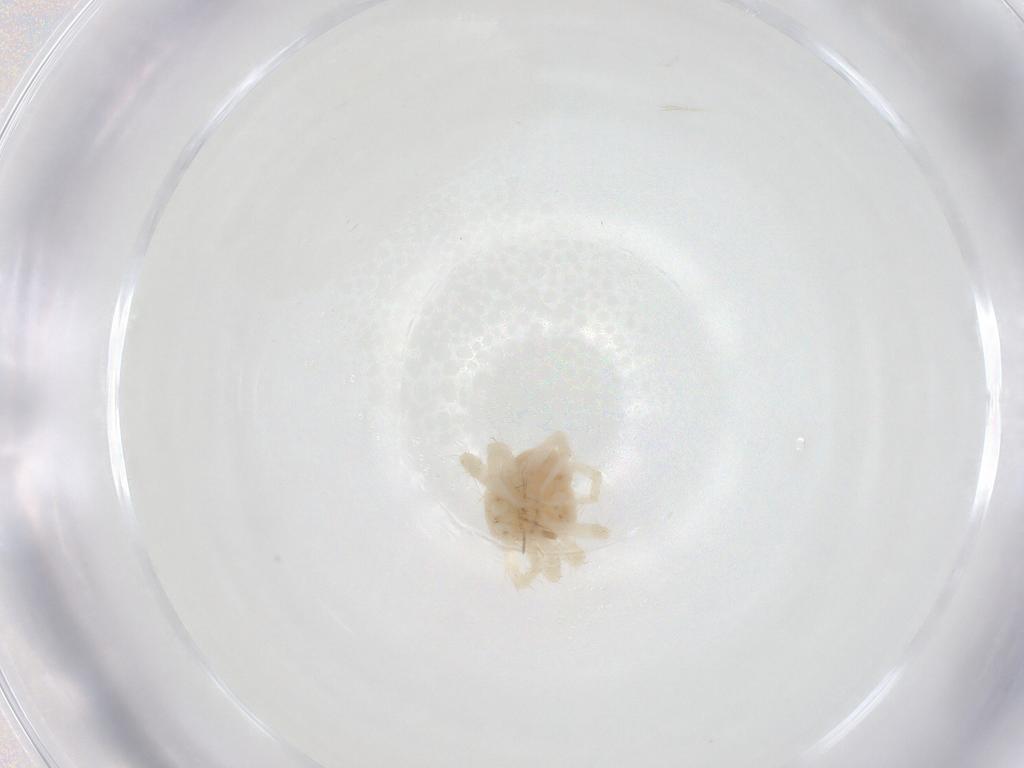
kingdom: Animalia
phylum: Arthropoda
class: Arachnida
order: Trombidiformes
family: Anystidae
